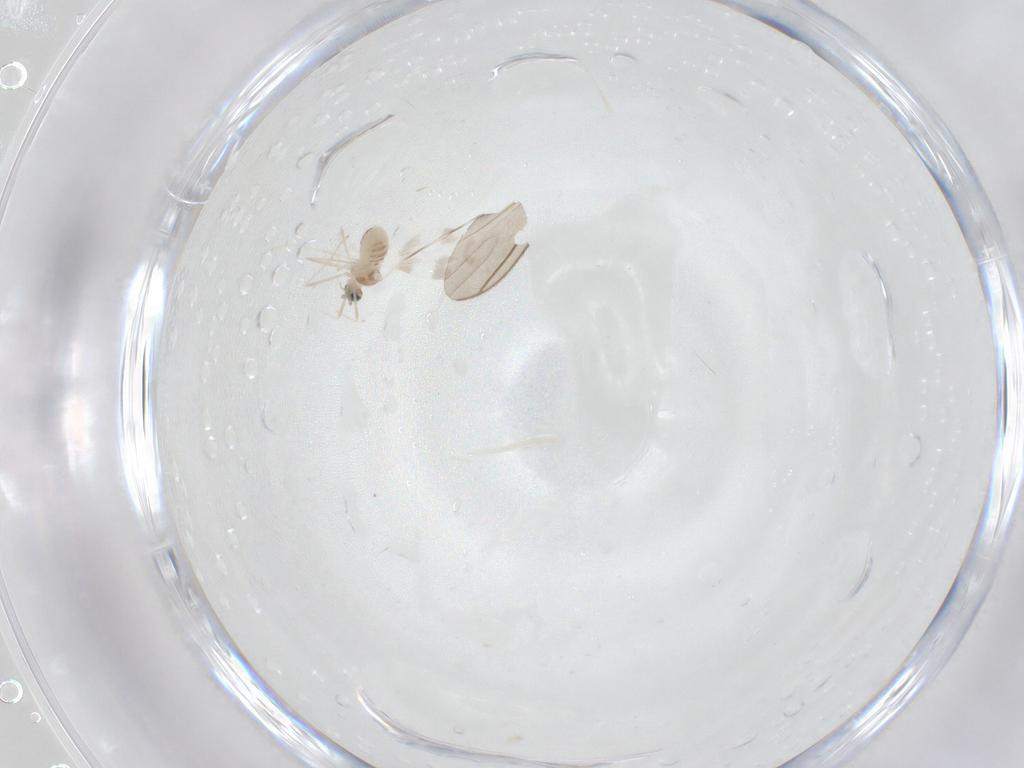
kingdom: Animalia
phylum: Arthropoda
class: Insecta
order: Diptera
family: Cecidomyiidae
